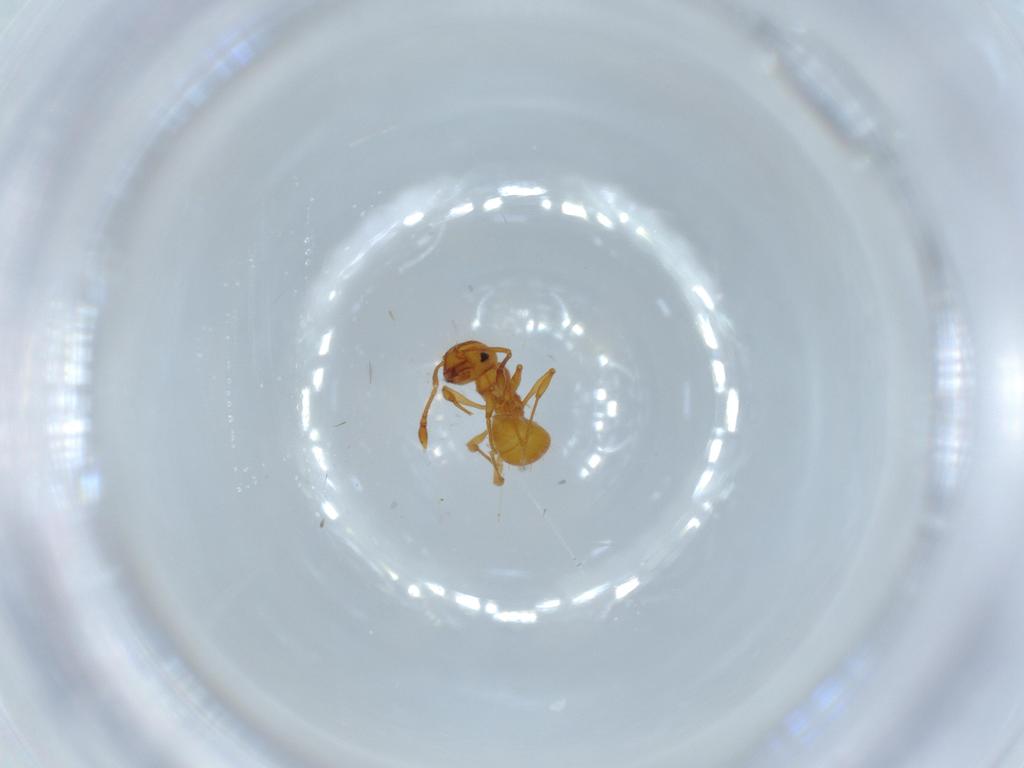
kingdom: Animalia
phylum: Arthropoda
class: Insecta
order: Hymenoptera
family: Formicidae
